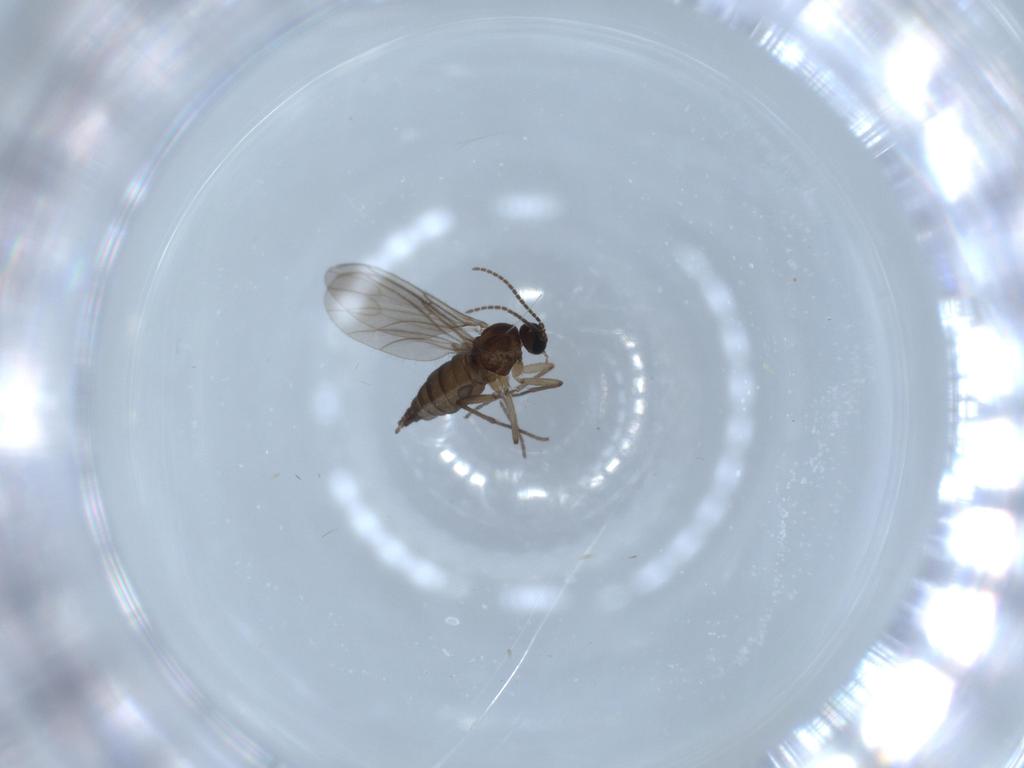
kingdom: Animalia
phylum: Arthropoda
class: Insecta
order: Diptera
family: Sciaridae
